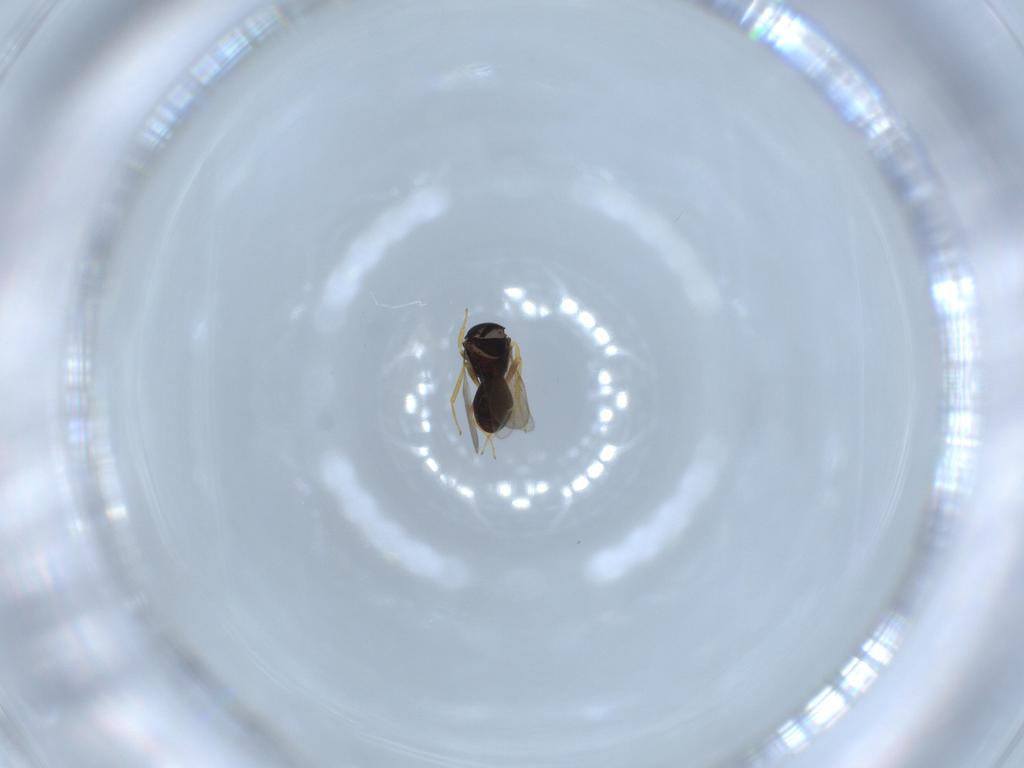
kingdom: Animalia
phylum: Arthropoda
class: Insecta
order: Hymenoptera
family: Scelionidae
